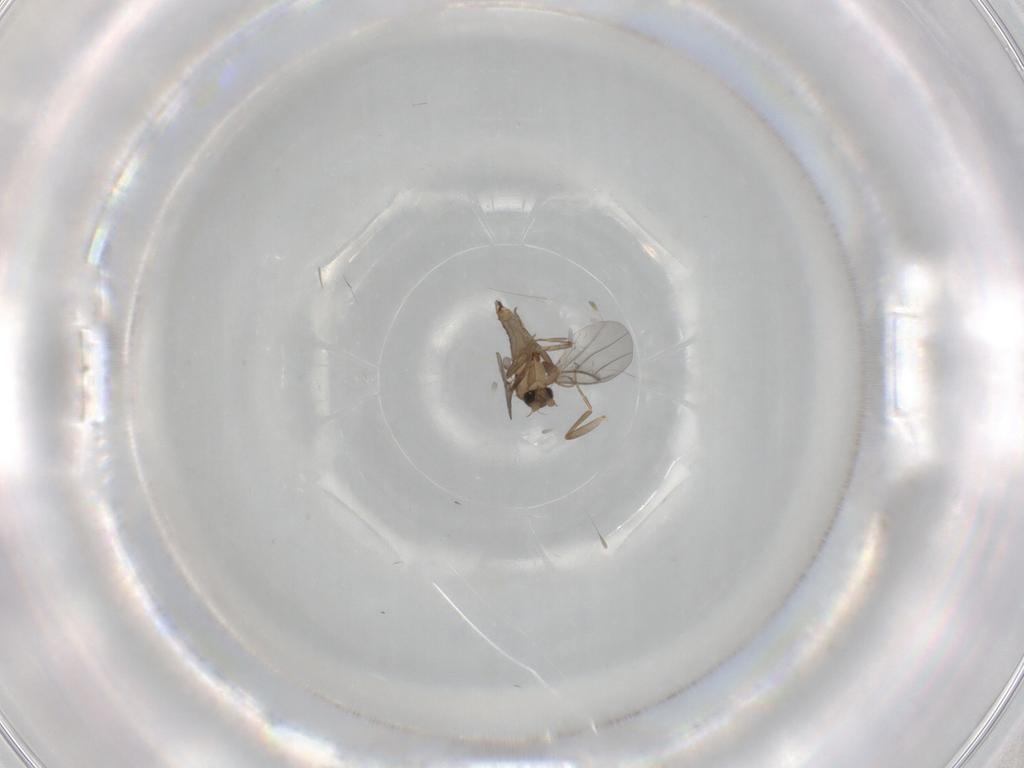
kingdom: Animalia
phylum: Arthropoda
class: Insecta
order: Diptera
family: Cecidomyiidae
